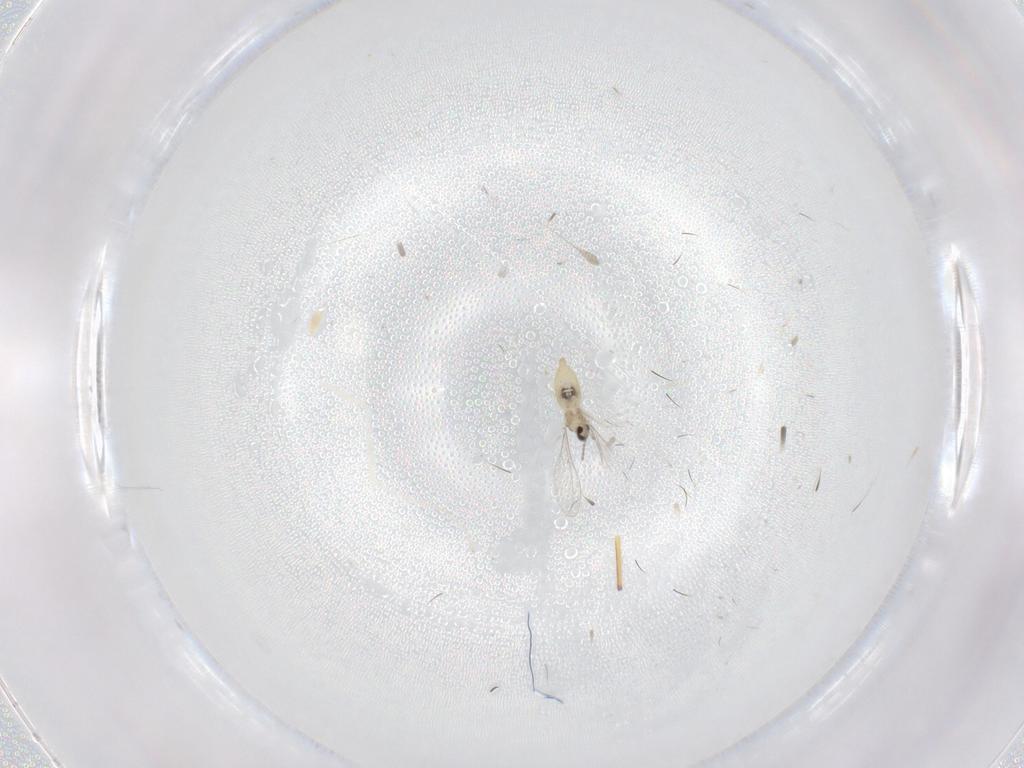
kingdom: Animalia
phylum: Arthropoda
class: Insecta
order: Diptera
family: Cecidomyiidae
